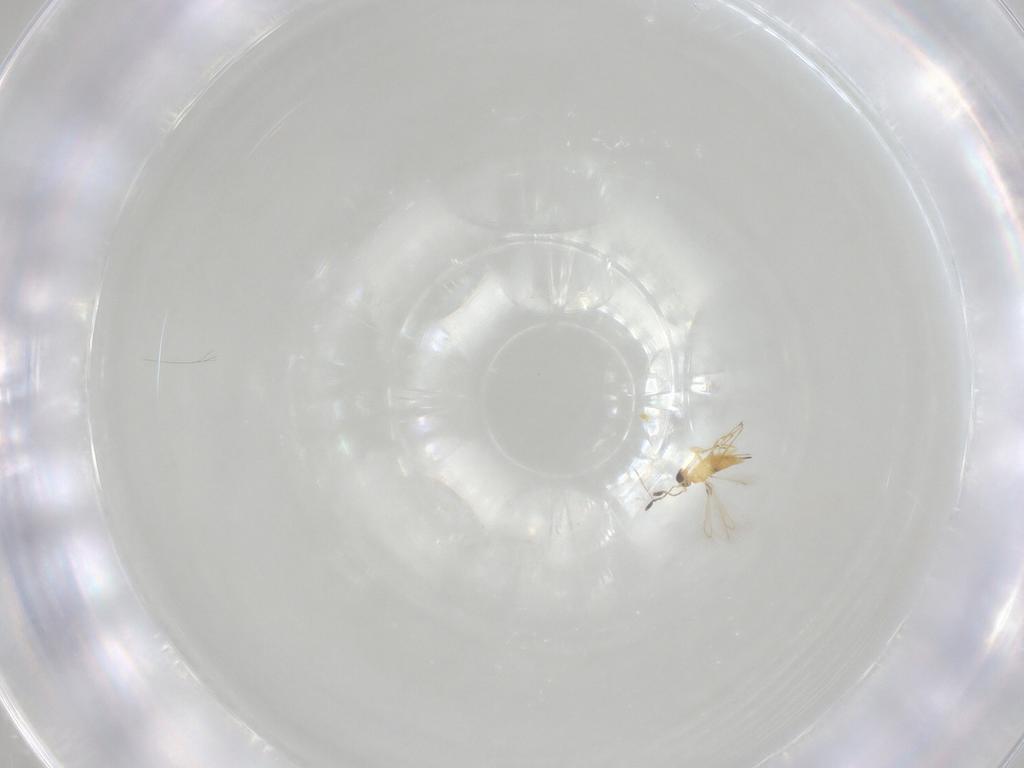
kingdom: Animalia
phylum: Arthropoda
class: Insecta
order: Hymenoptera
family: Mymaridae
